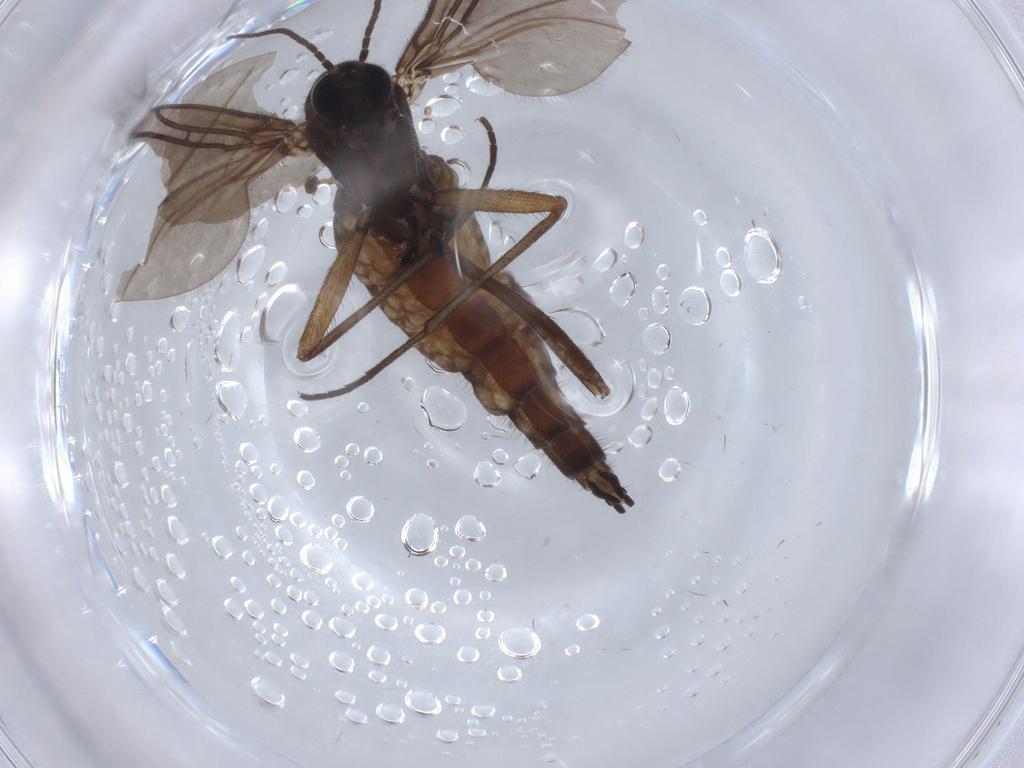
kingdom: Animalia
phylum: Arthropoda
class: Insecta
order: Diptera
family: Sciaridae
